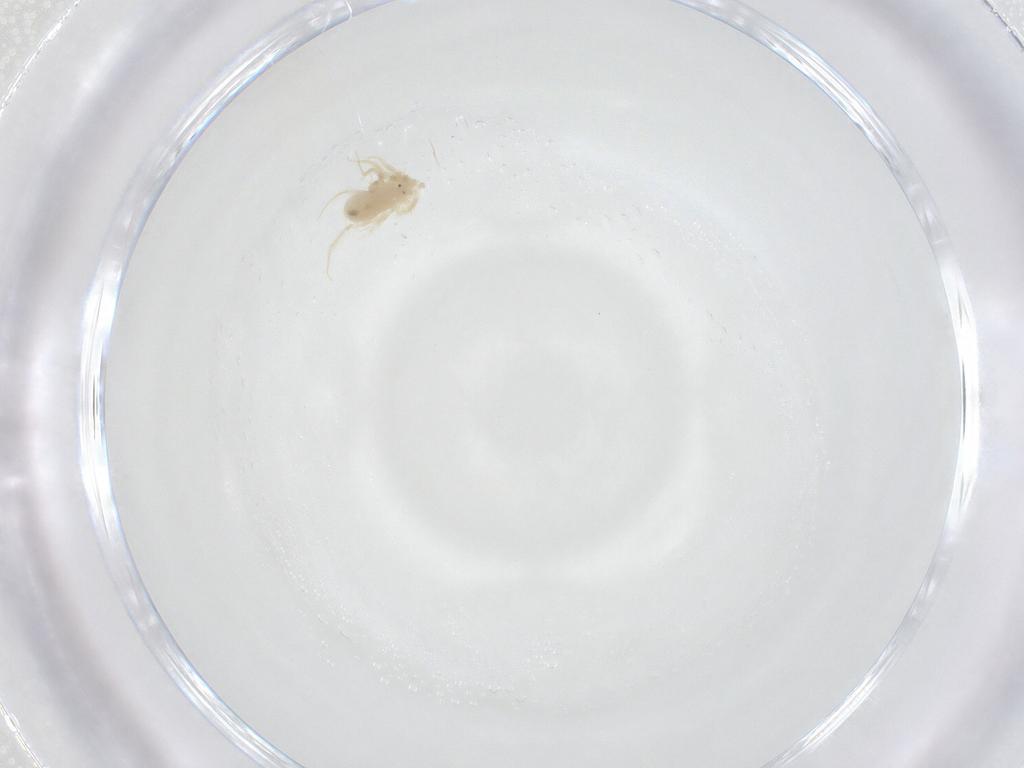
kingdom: Animalia
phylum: Arthropoda
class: Arachnida
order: Trombidiformes
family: Anystidae
